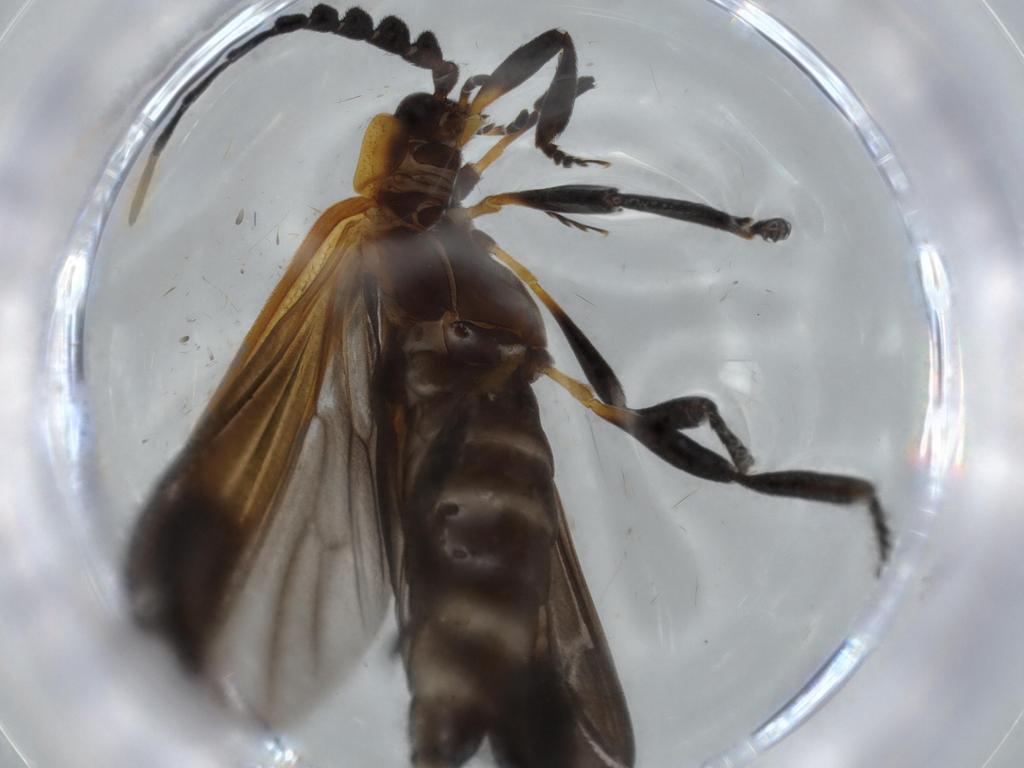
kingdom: Animalia
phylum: Arthropoda
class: Insecta
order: Coleoptera
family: Lycidae
